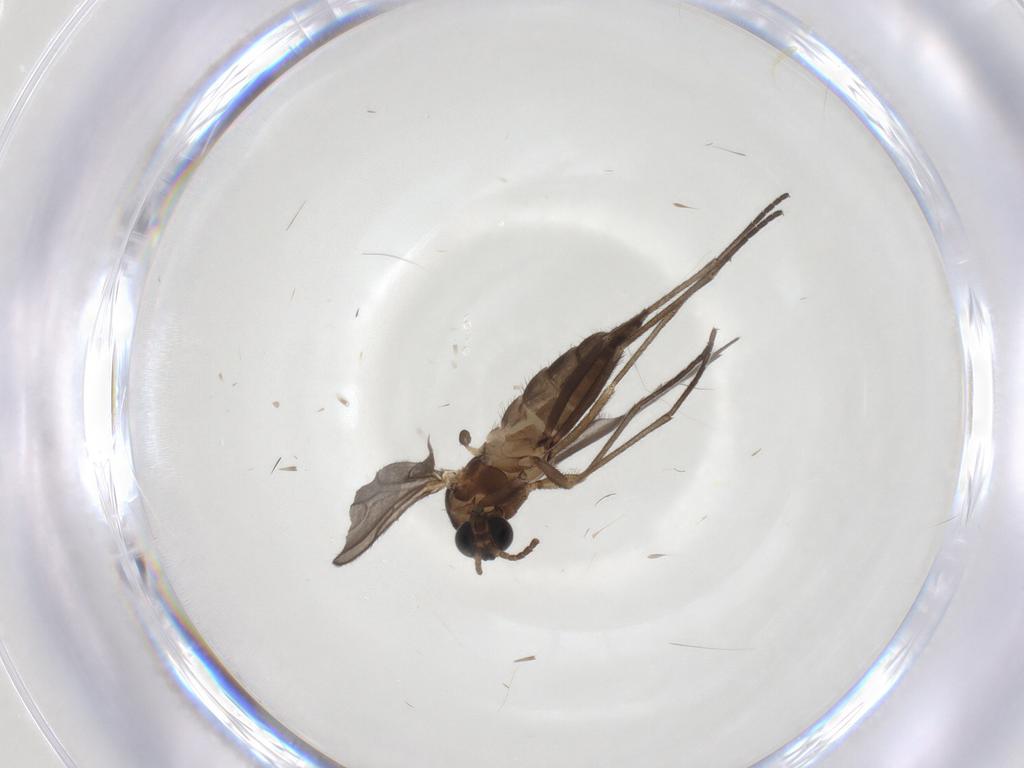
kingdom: Animalia
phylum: Arthropoda
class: Insecta
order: Diptera
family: Sciaridae
